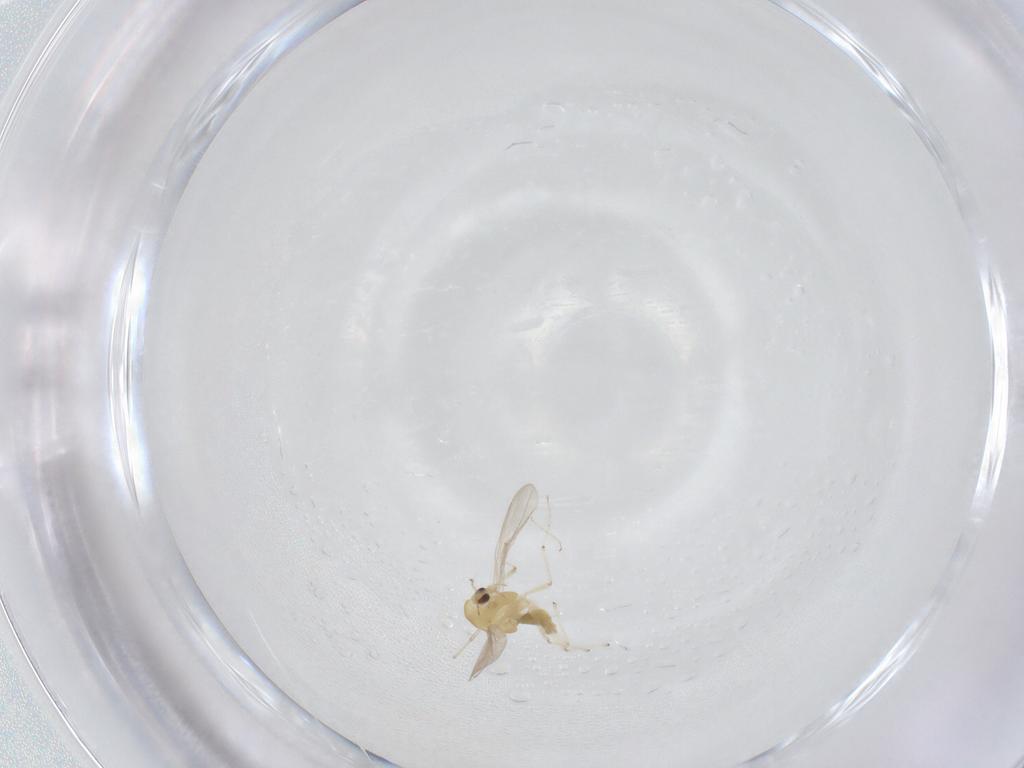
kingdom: Animalia
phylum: Arthropoda
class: Insecta
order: Diptera
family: Chironomidae
